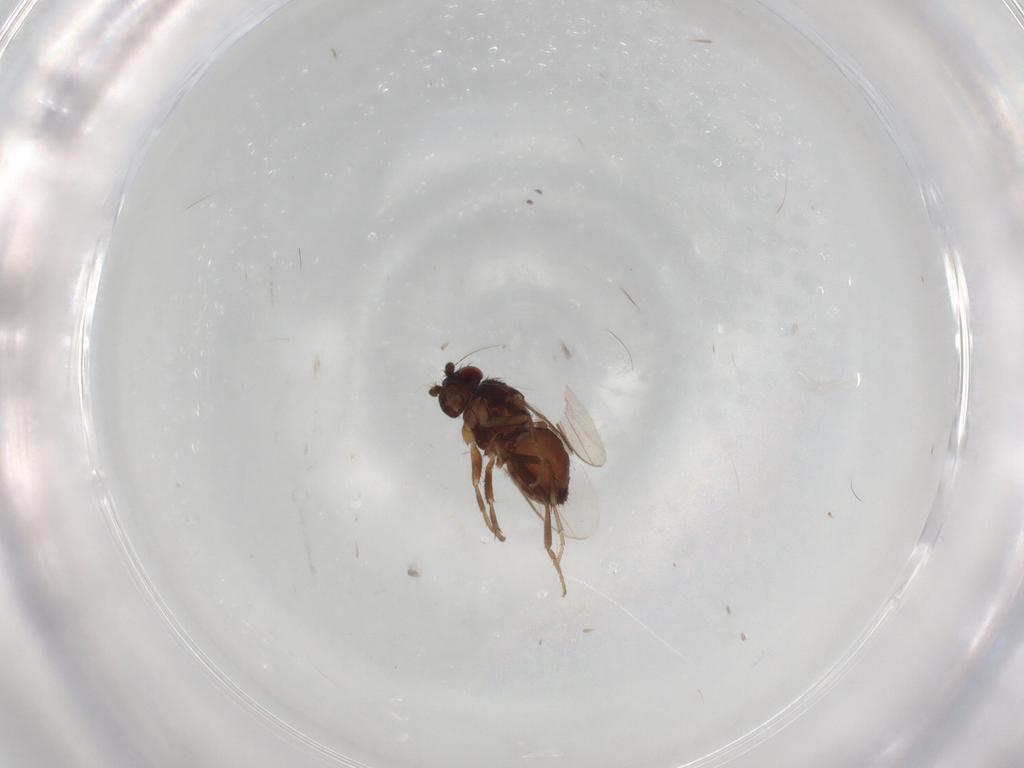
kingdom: Animalia
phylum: Arthropoda
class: Insecta
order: Diptera
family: Sphaeroceridae
